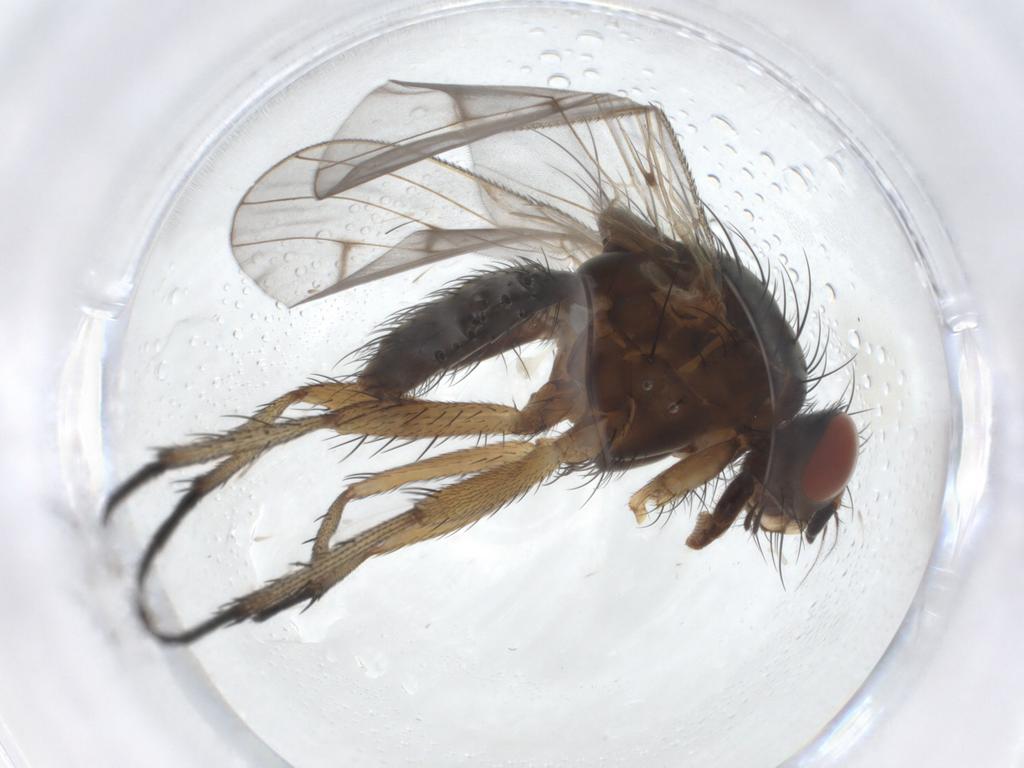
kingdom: Animalia
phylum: Arthropoda
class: Insecta
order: Diptera
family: Anthomyiidae
